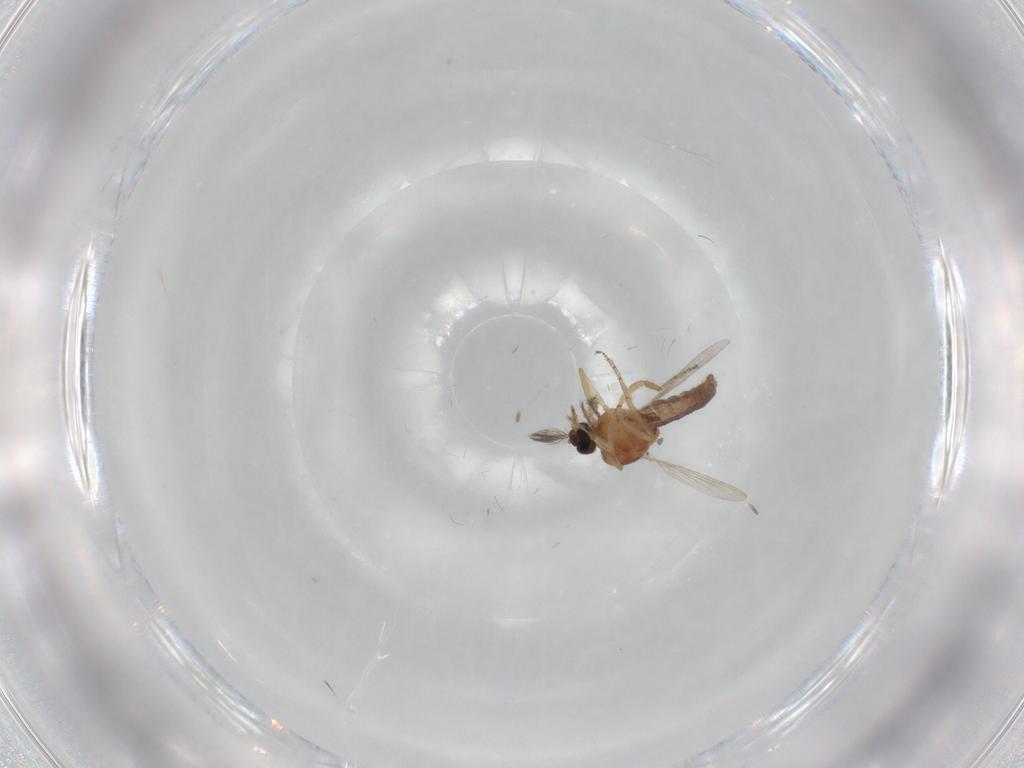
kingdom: Animalia
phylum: Arthropoda
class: Insecta
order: Diptera
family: Ceratopogonidae
